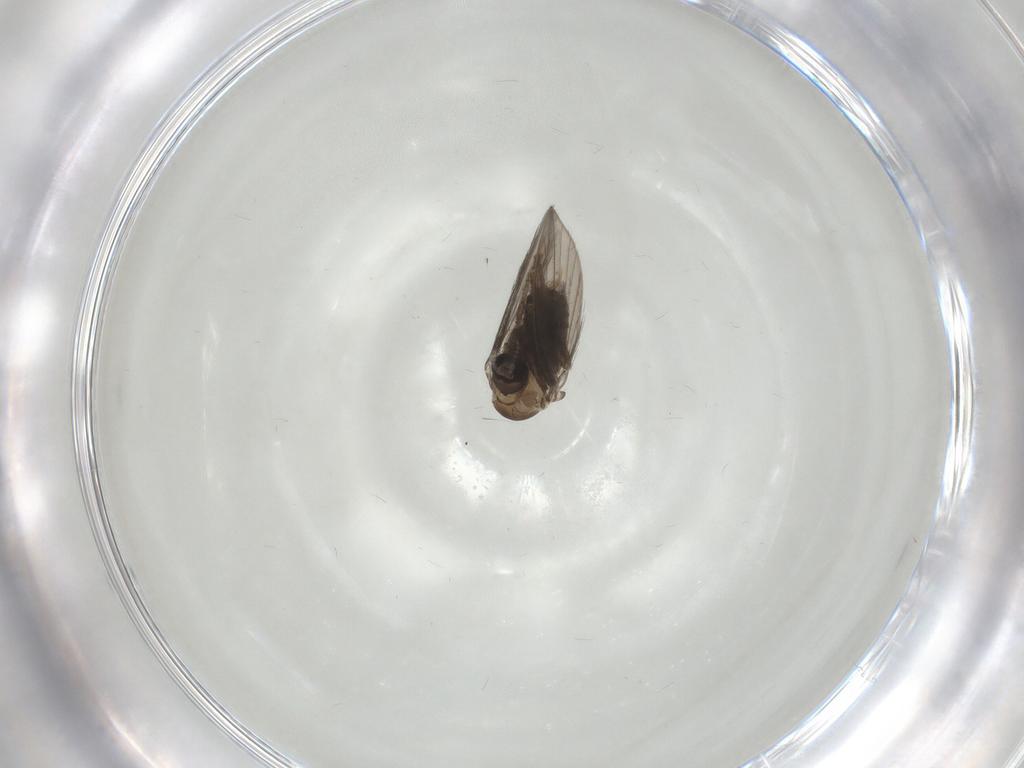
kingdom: Animalia
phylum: Arthropoda
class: Insecta
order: Diptera
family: Psychodidae
